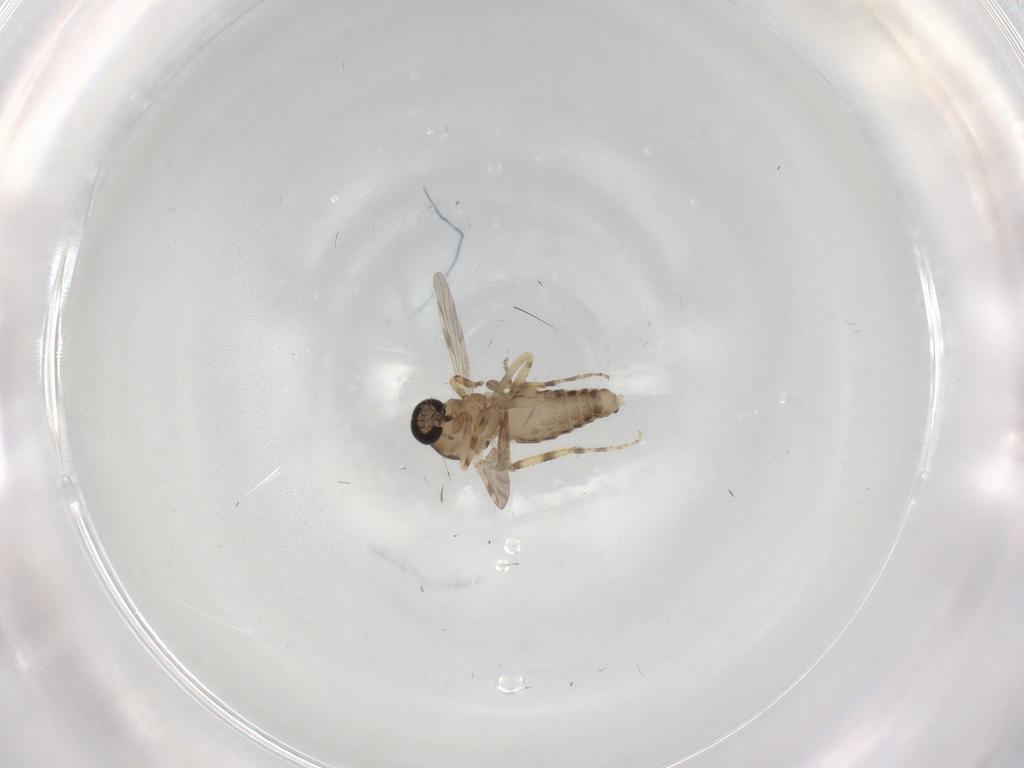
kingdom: Animalia
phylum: Arthropoda
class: Insecta
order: Diptera
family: Ceratopogonidae
